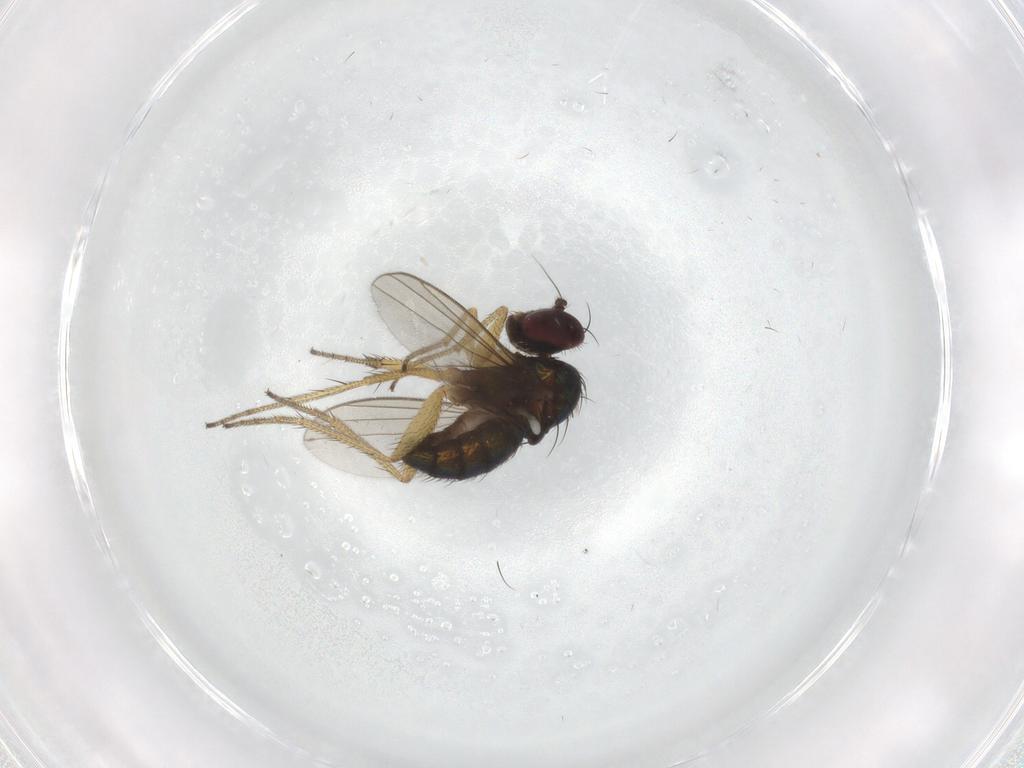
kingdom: Animalia
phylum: Arthropoda
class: Insecta
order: Diptera
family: Dolichopodidae
